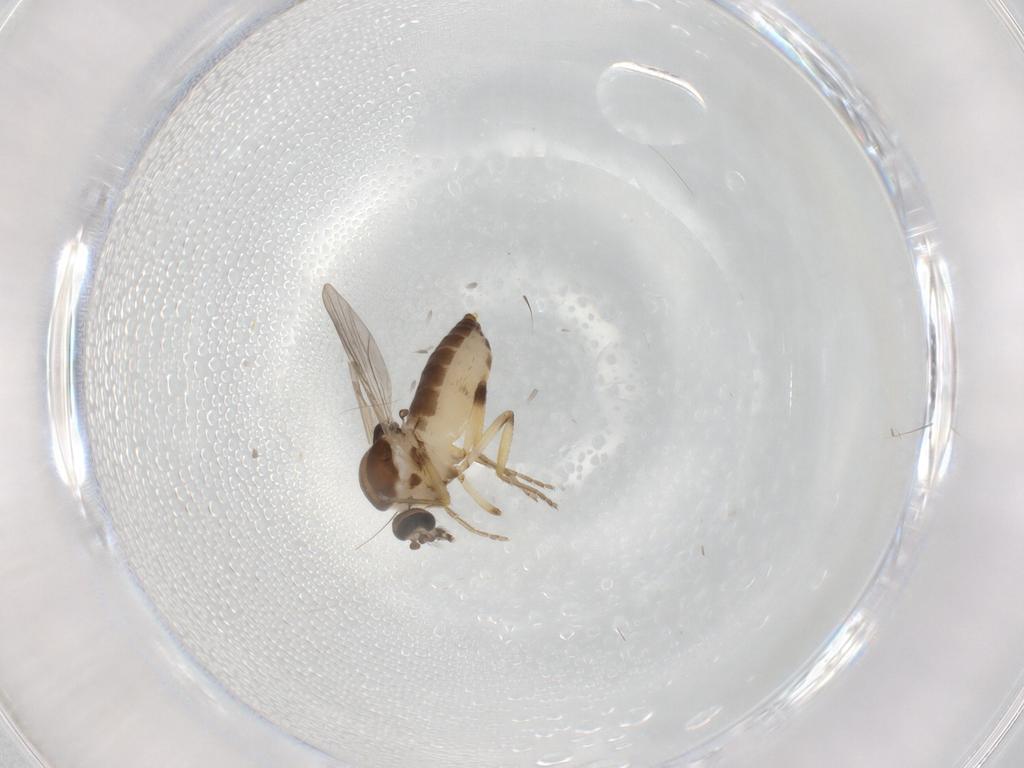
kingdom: Animalia
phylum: Arthropoda
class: Insecta
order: Diptera
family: Ceratopogonidae
